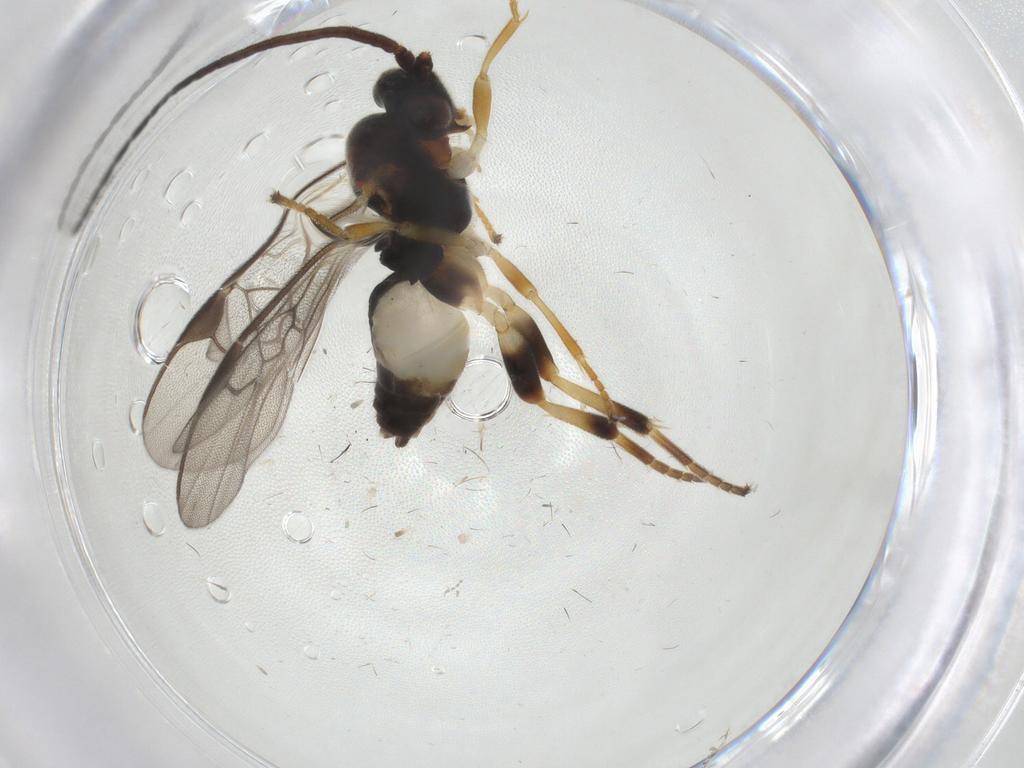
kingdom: Animalia
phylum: Arthropoda
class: Insecta
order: Hymenoptera
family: Braconidae
